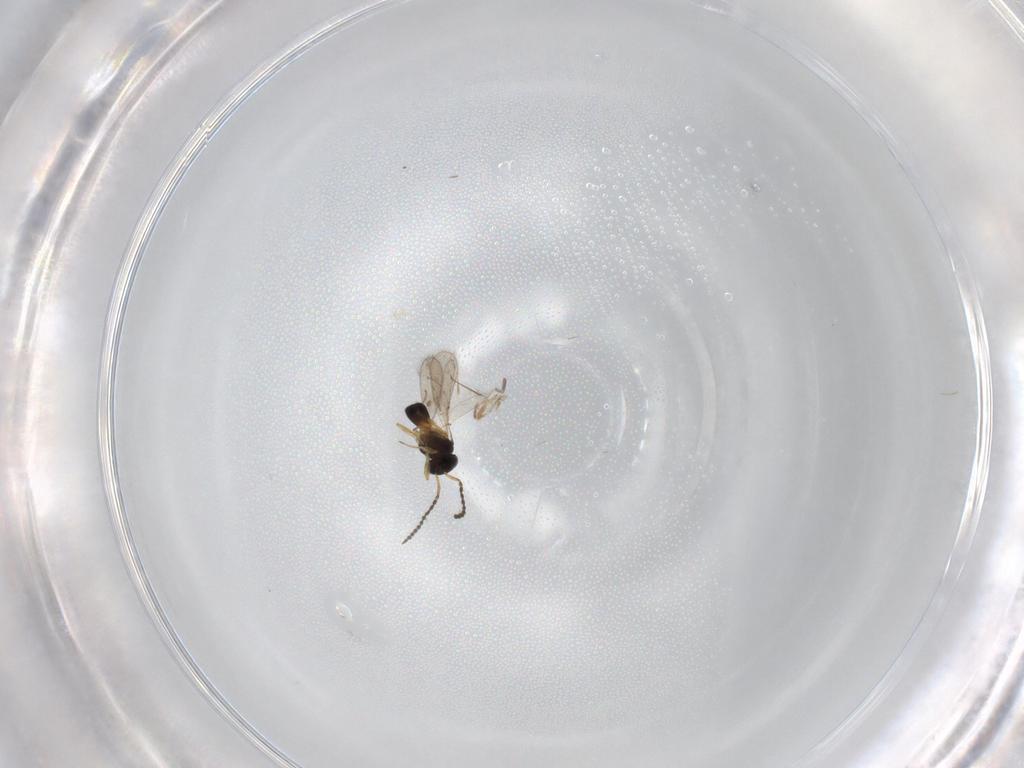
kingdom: Animalia
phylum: Arthropoda
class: Insecta
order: Hymenoptera
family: Scelionidae
